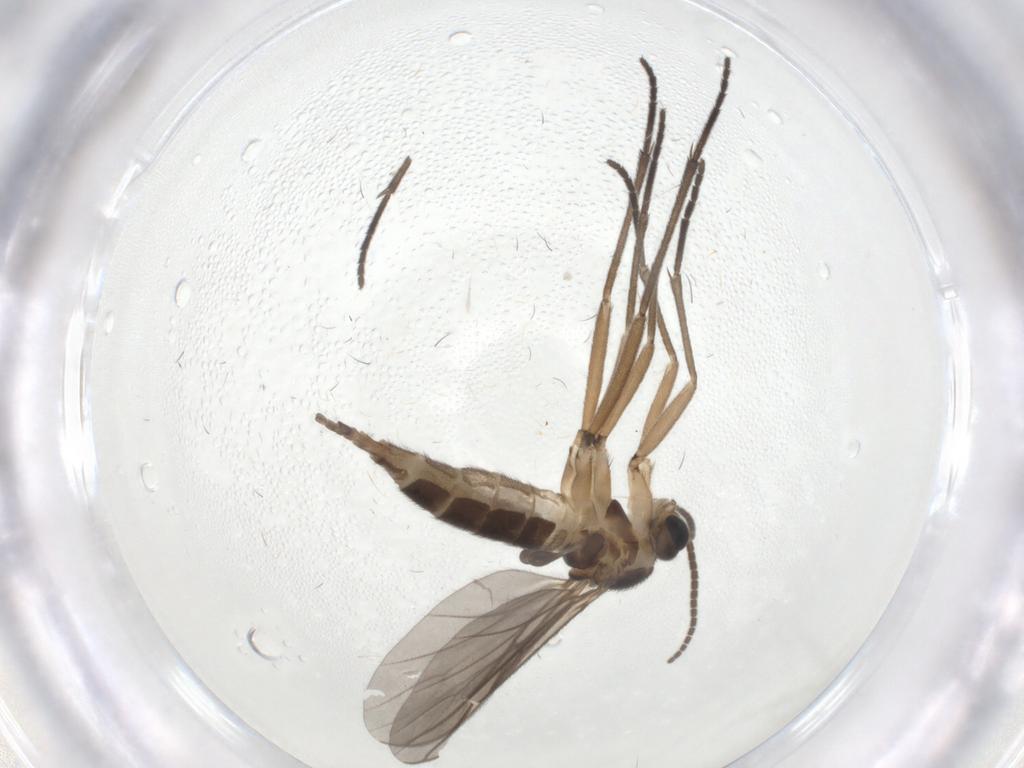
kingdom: Animalia
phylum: Arthropoda
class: Insecta
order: Diptera
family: Sciaridae
